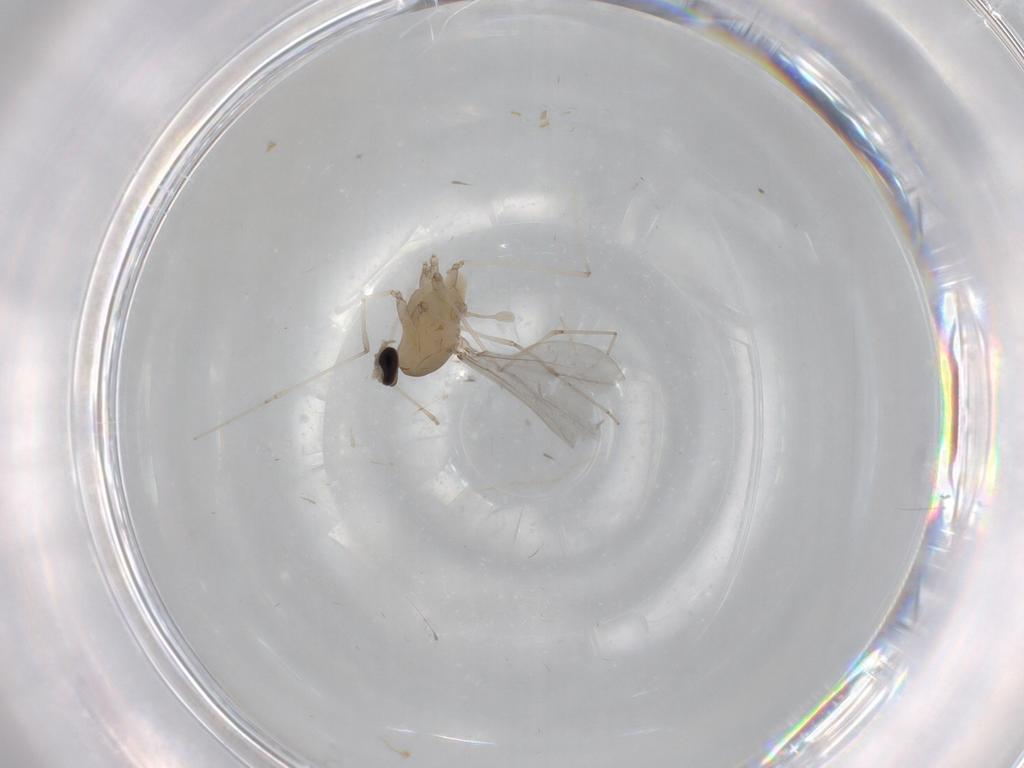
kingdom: Animalia
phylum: Arthropoda
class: Insecta
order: Diptera
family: Cecidomyiidae
